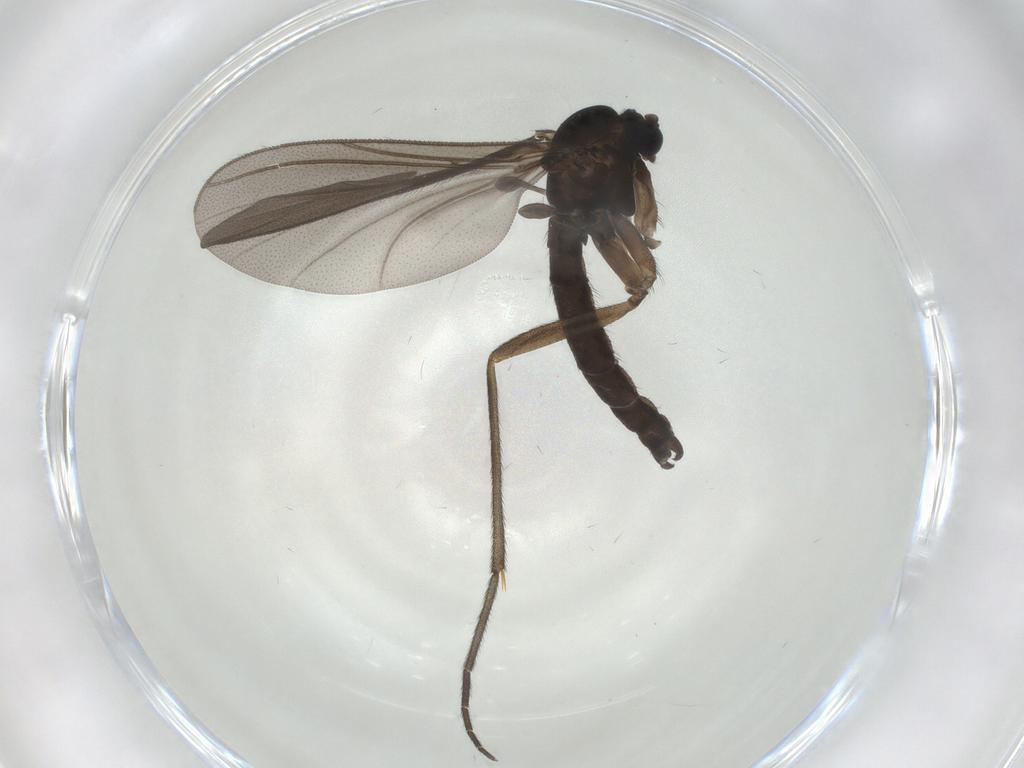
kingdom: Animalia
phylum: Arthropoda
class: Insecta
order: Diptera
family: Sciaridae
